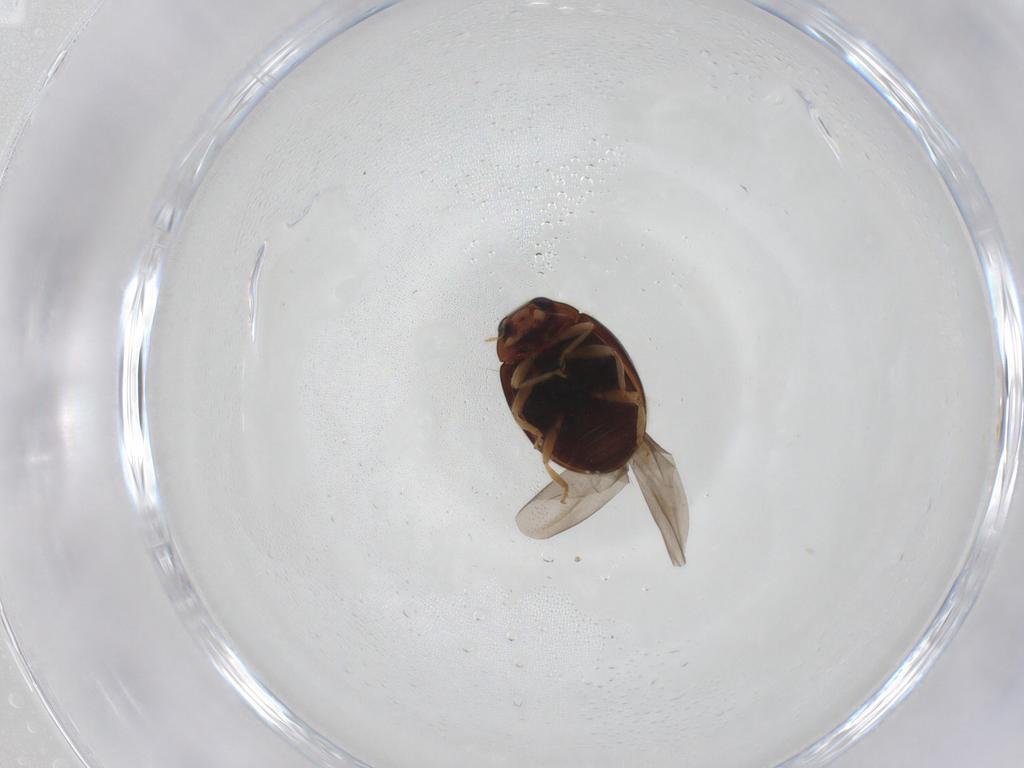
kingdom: Animalia
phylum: Arthropoda
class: Insecta
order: Coleoptera
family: Coccinellidae
